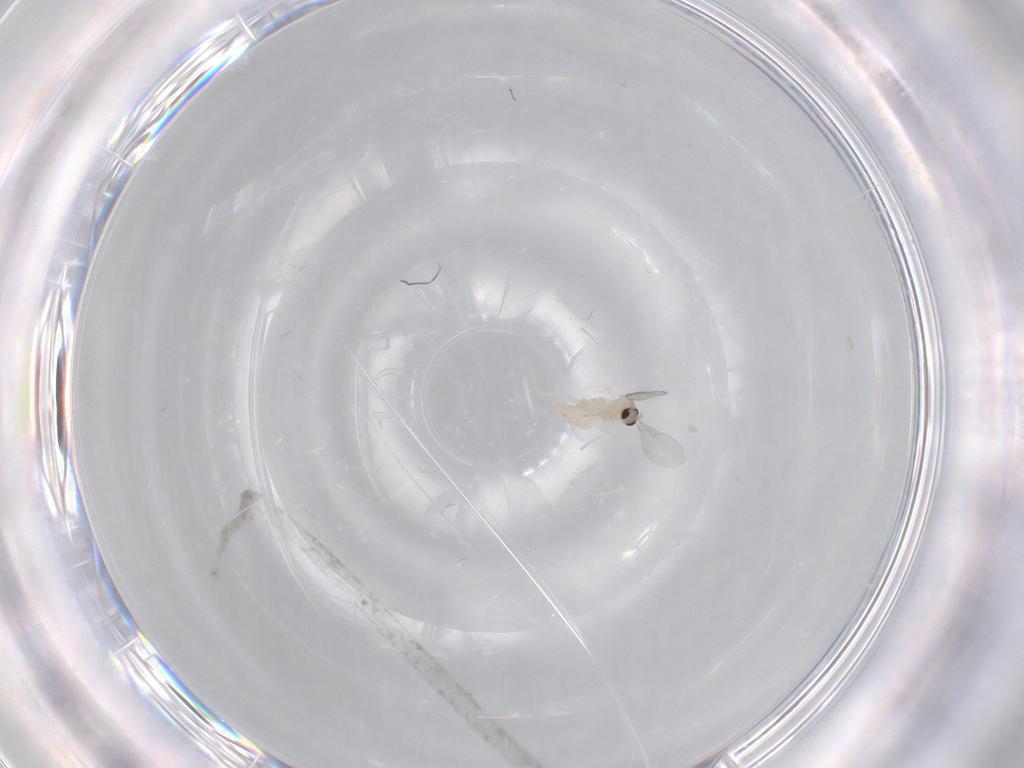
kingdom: Animalia
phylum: Arthropoda
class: Insecta
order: Diptera
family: Cecidomyiidae
